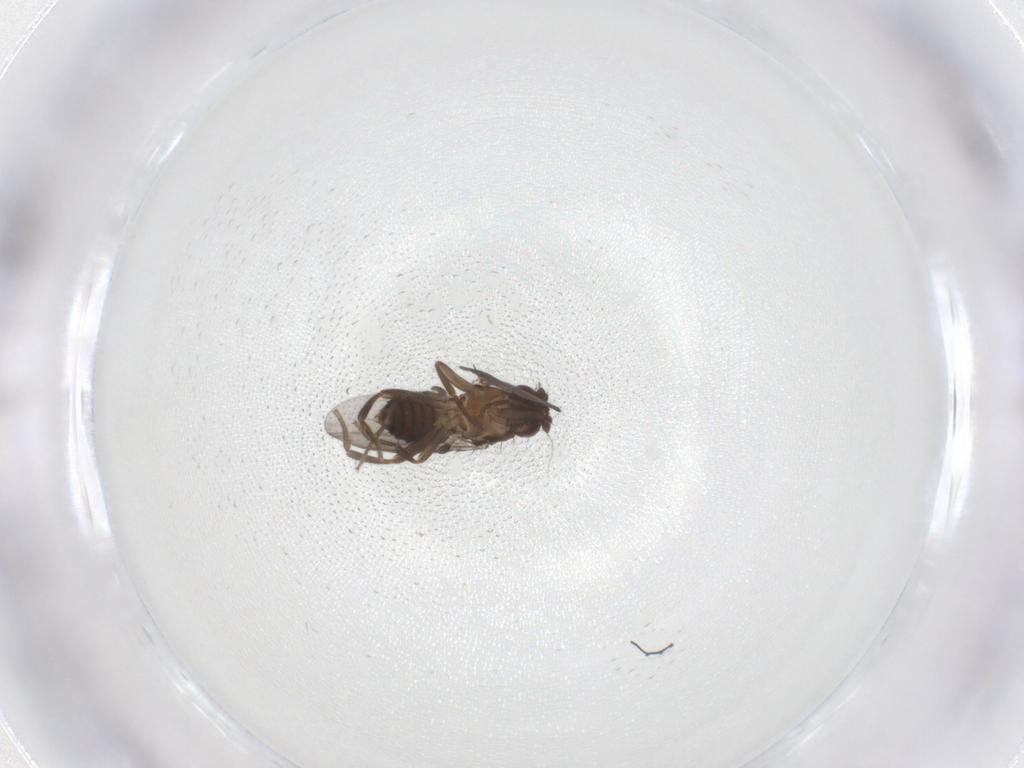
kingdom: Animalia
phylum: Arthropoda
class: Insecta
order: Diptera
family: Sphaeroceridae
